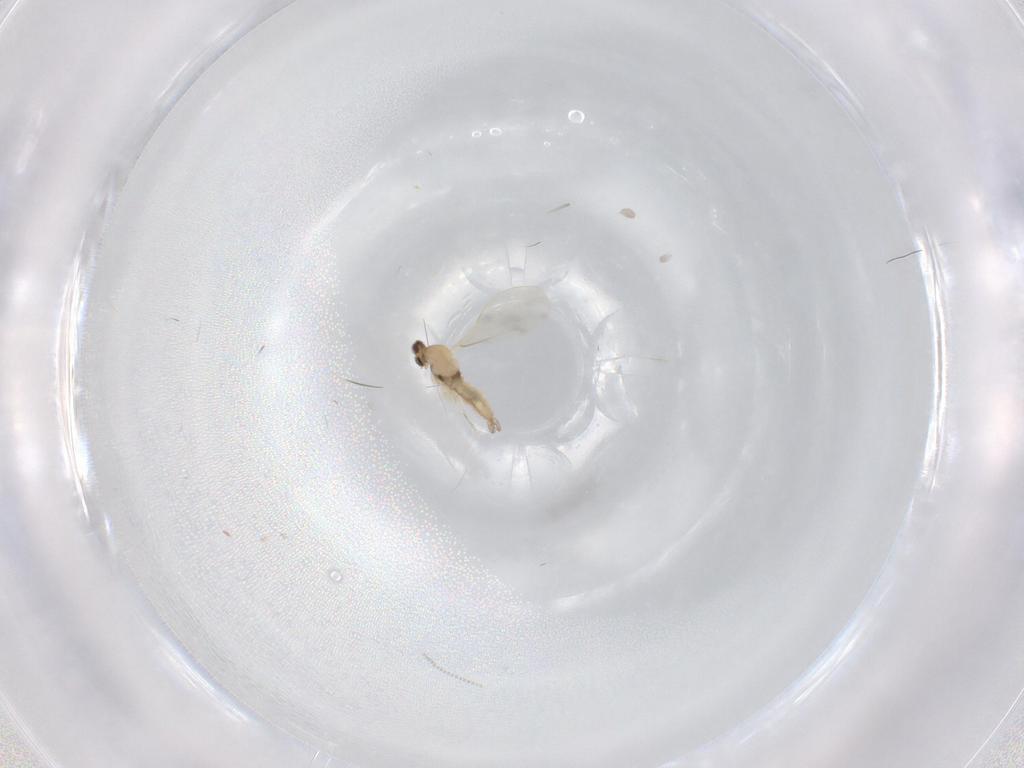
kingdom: Animalia
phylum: Arthropoda
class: Insecta
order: Diptera
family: Cecidomyiidae
